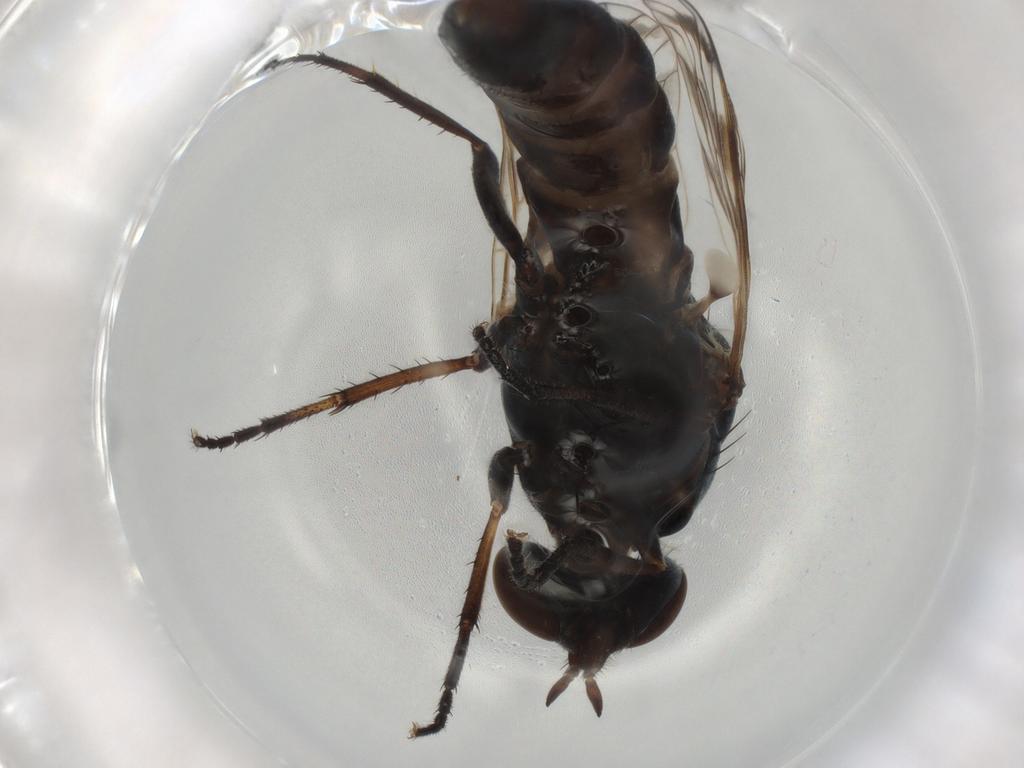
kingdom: Animalia
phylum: Arthropoda
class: Insecta
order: Diptera
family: Therevidae
